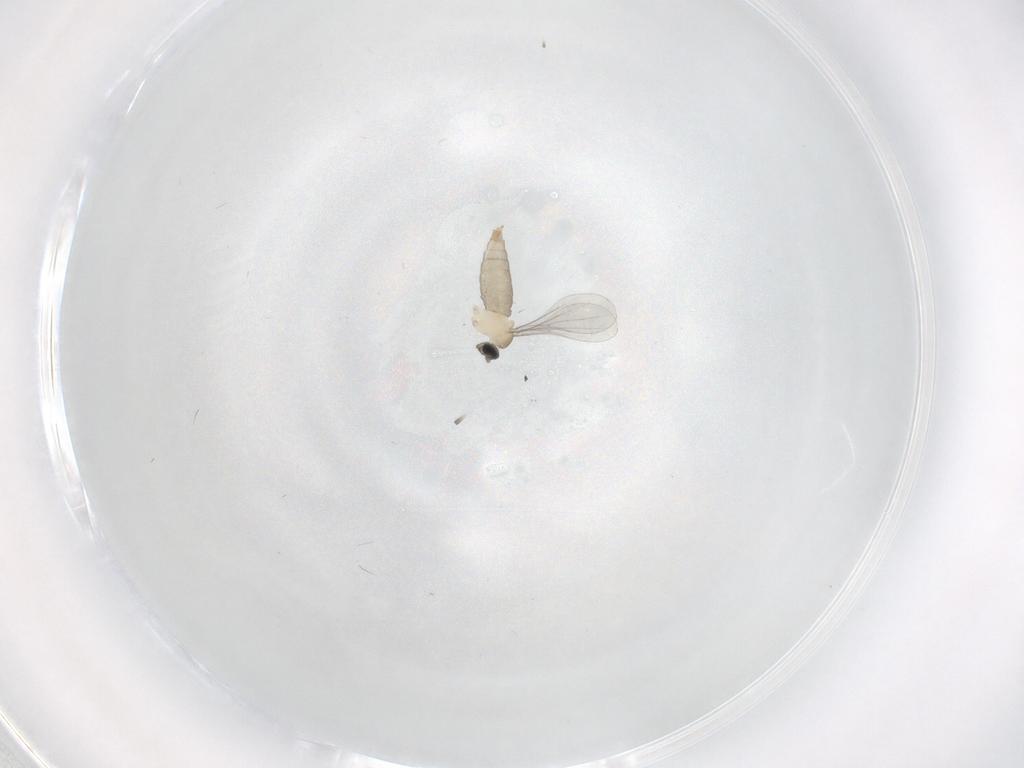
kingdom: Animalia
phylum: Arthropoda
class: Insecta
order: Diptera
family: Cecidomyiidae
